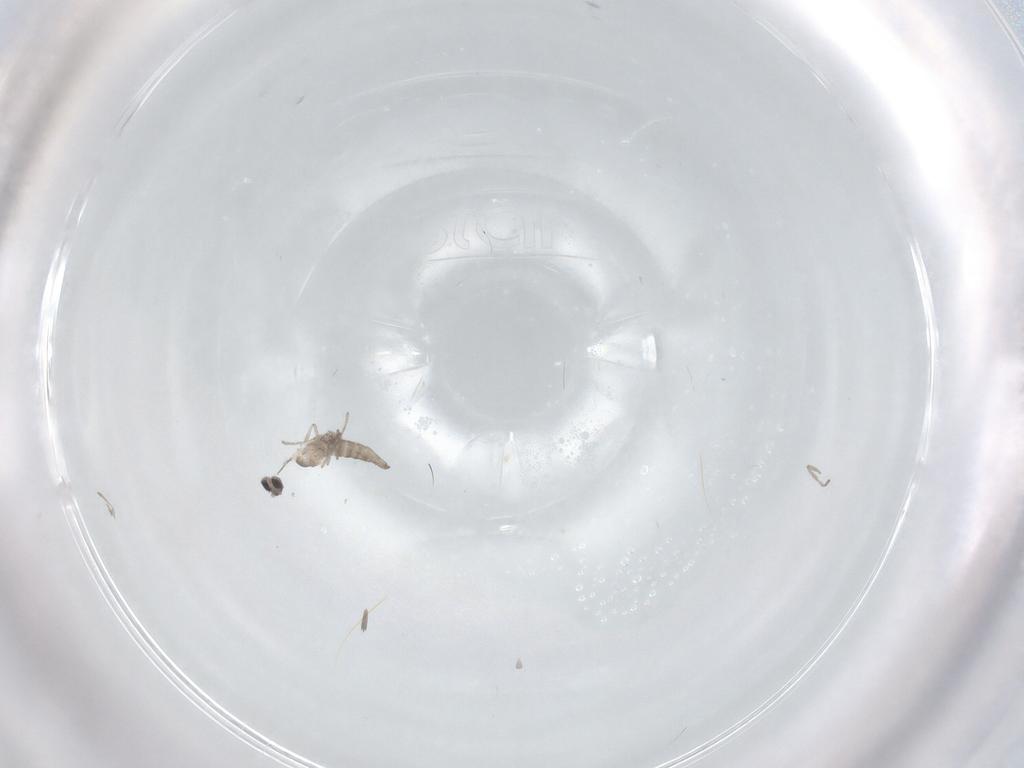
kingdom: Animalia
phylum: Arthropoda
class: Insecta
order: Diptera
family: Cecidomyiidae
